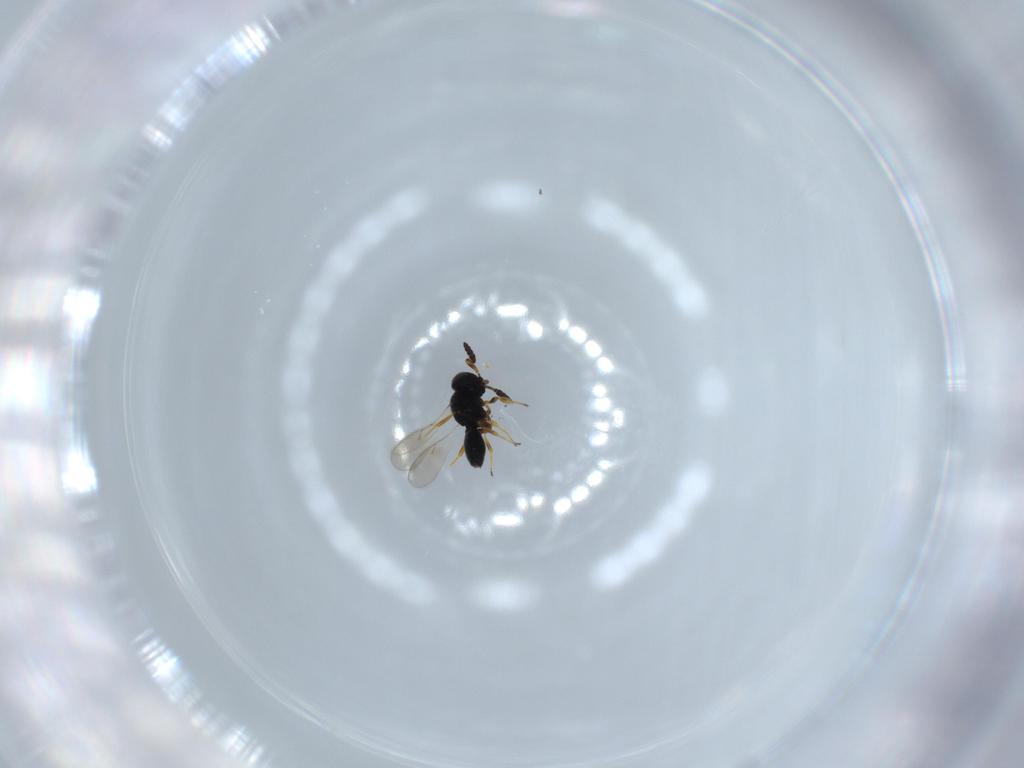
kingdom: Animalia
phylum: Arthropoda
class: Insecta
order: Hymenoptera
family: Scelionidae
